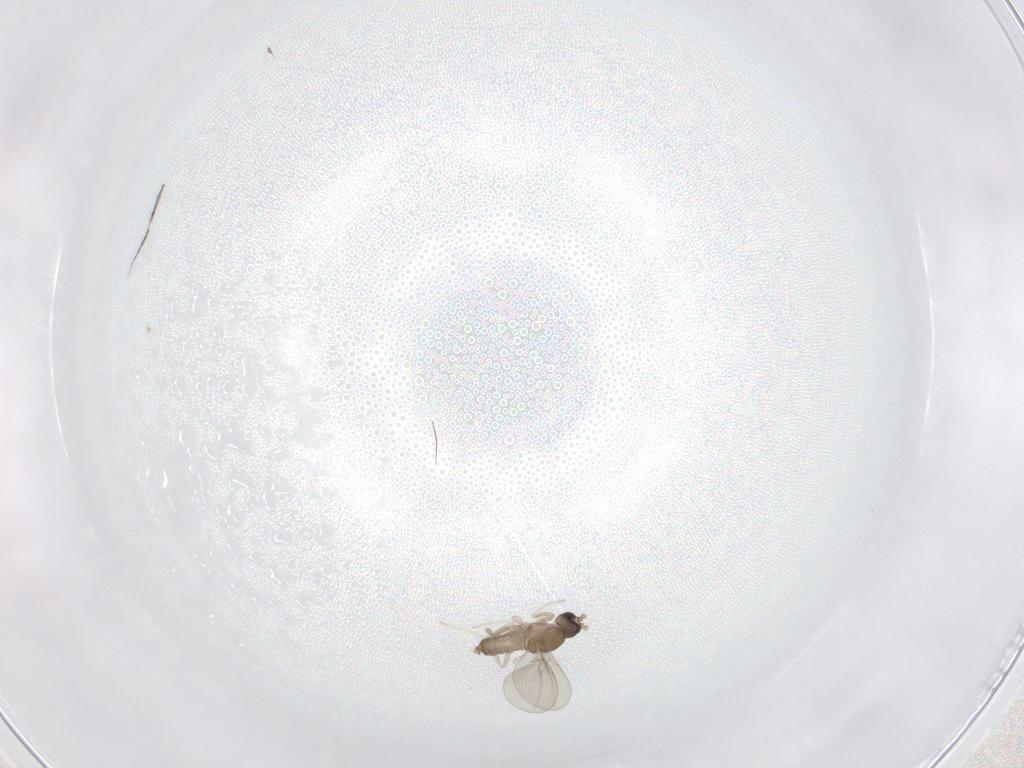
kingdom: Animalia
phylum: Arthropoda
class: Insecta
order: Diptera
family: Cecidomyiidae
